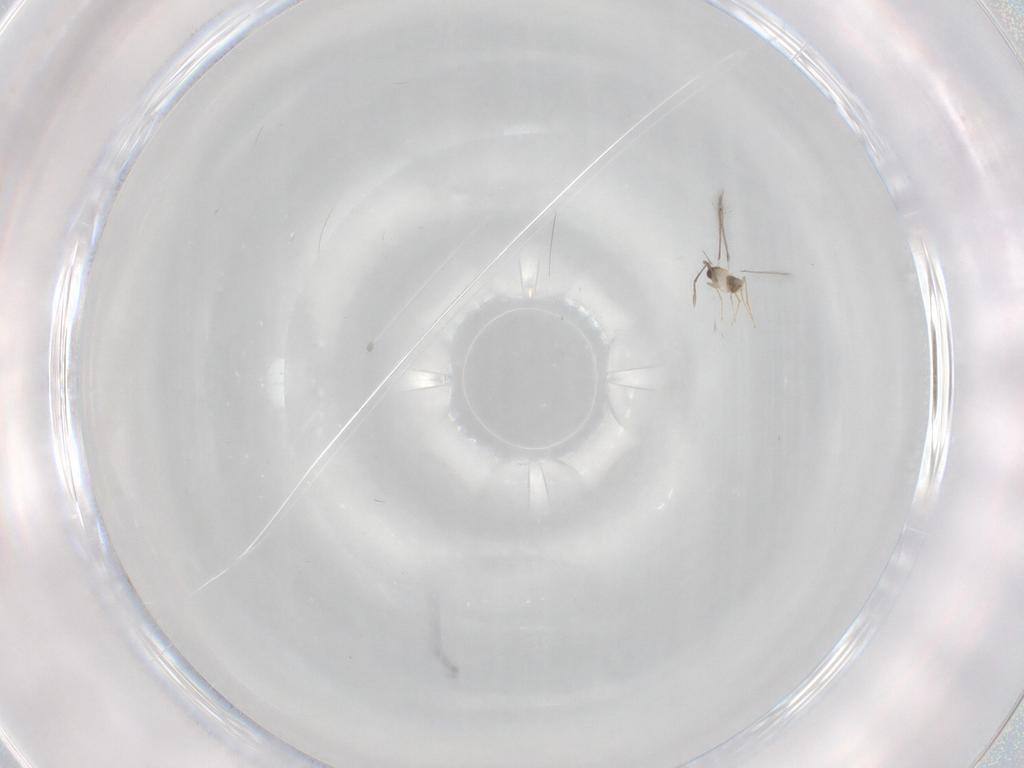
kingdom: Animalia
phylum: Arthropoda
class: Insecta
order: Hymenoptera
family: Mymaridae
